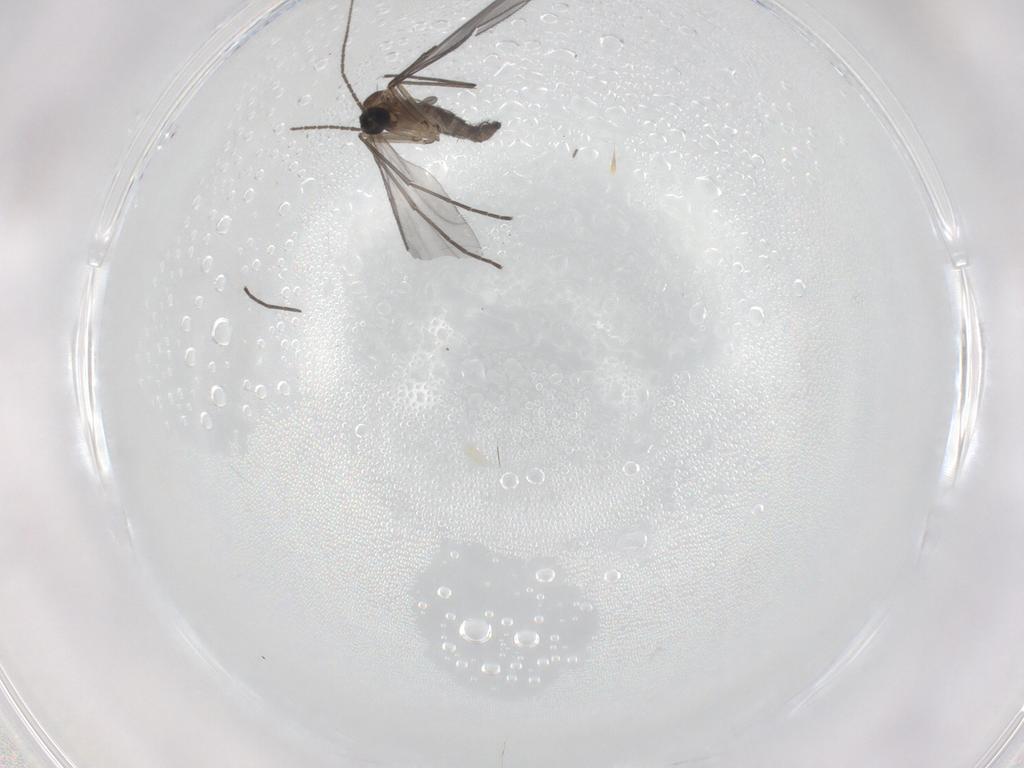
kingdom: Animalia
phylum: Arthropoda
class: Insecta
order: Diptera
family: Sciaridae
